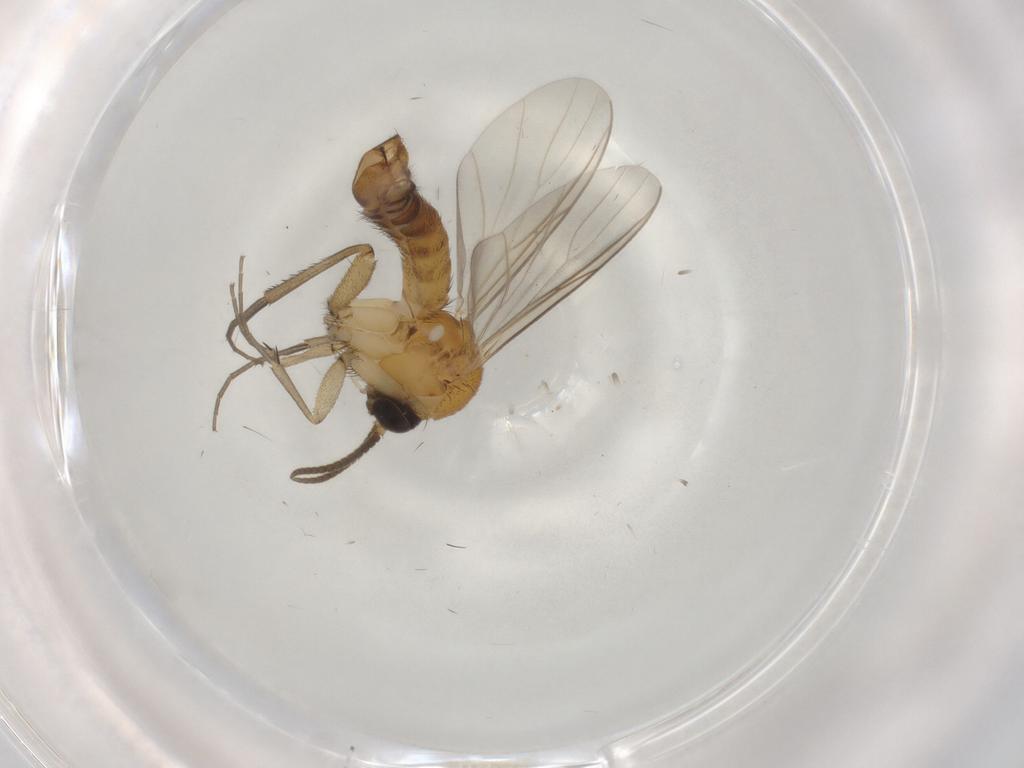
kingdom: Animalia
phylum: Arthropoda
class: Insecta
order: Diptera
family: Mycetophilidae
